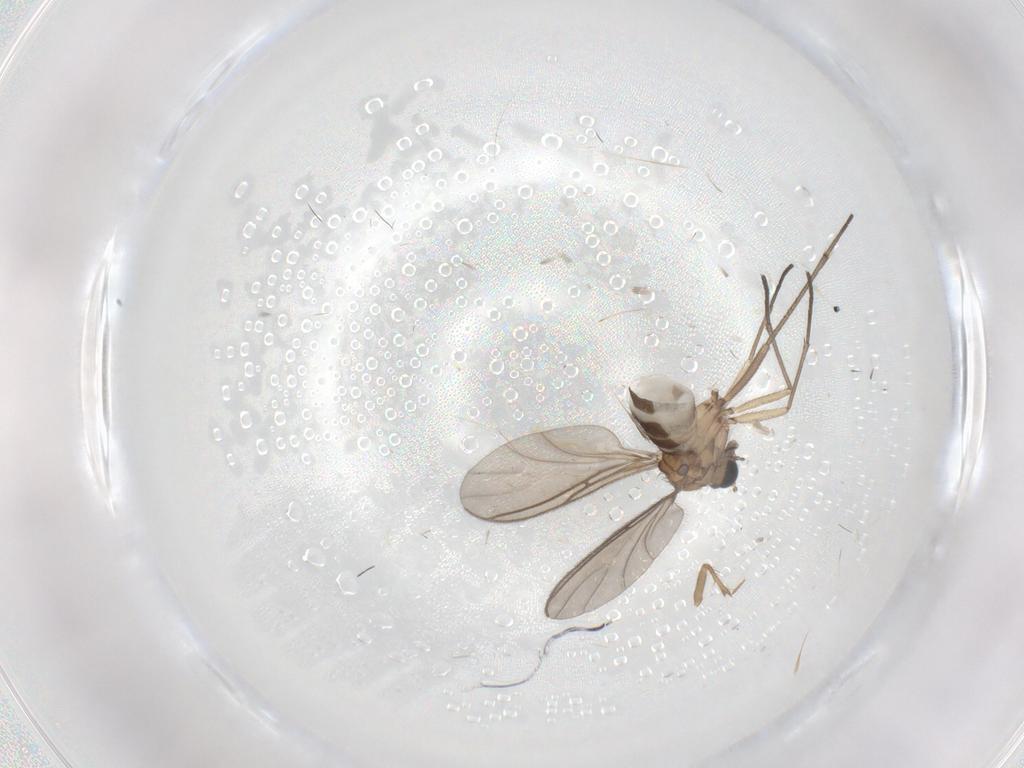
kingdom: Animalia
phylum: Arthropoda
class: Insecta
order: Diptera
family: Sciaridae
